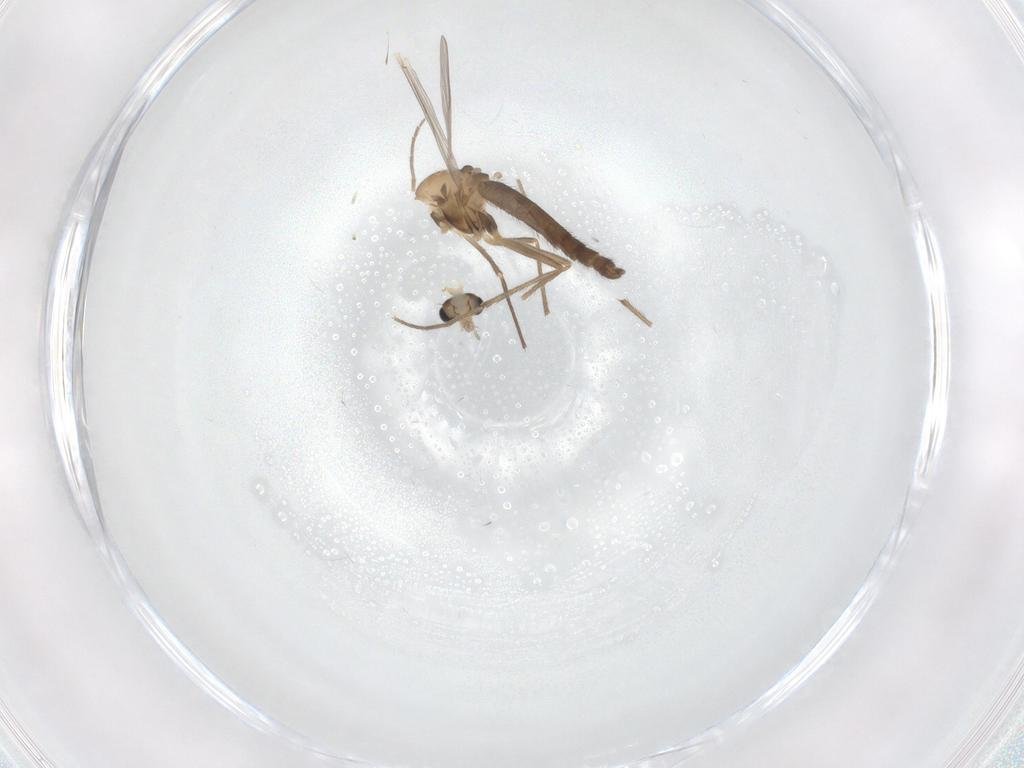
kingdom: Animalia
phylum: Arthropoda
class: Insecta
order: Diptera
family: Chironomidae
